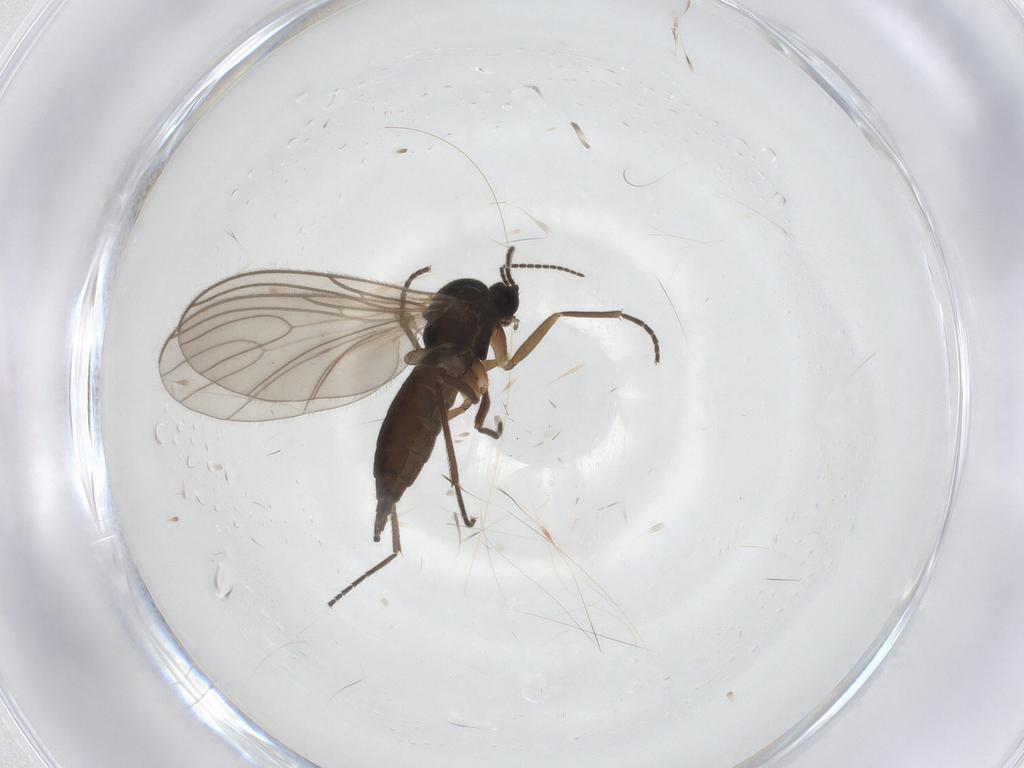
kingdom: Animalia
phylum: Arthropoda
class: Insecta
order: Diptera
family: Sciaridae
